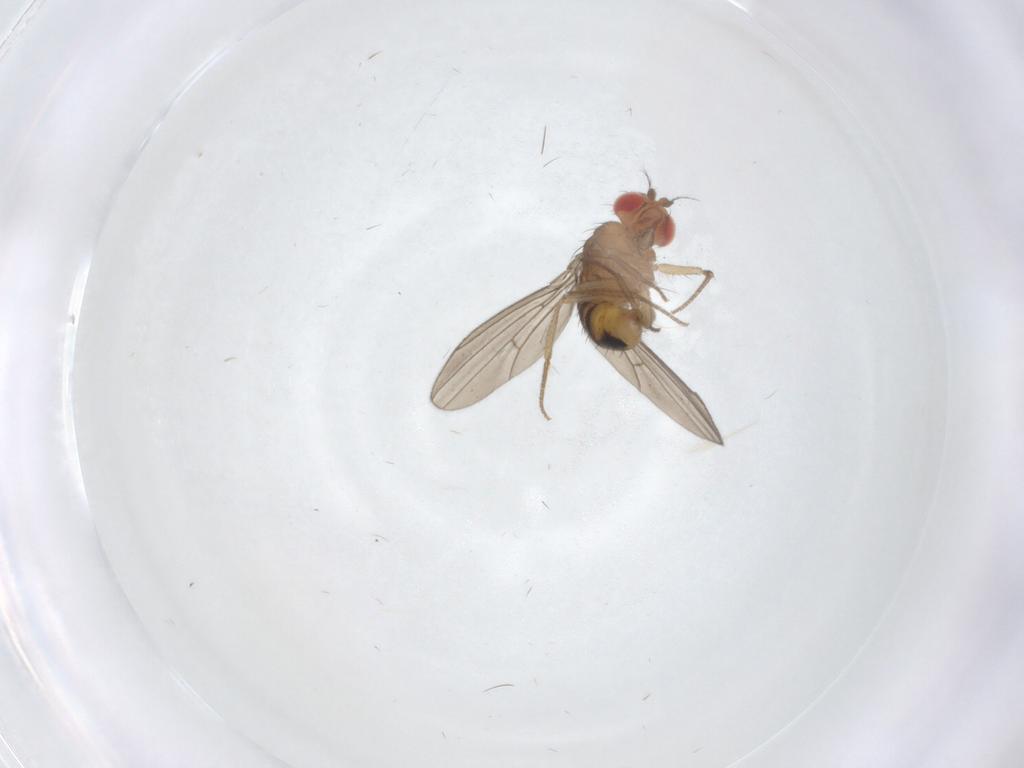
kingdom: Animalia
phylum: Arthropoda
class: Insecta
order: Diptera
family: Drosophilidae
